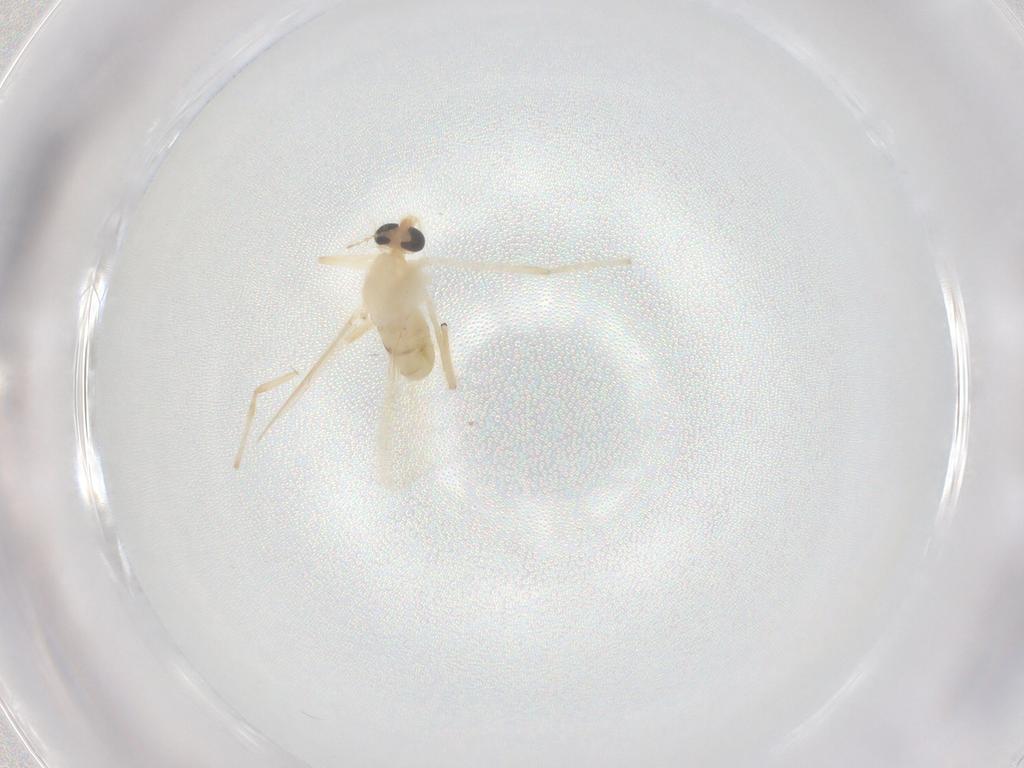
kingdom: Animalia
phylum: Arthropoda
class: Insecta
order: Diptera
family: Chironomidae
